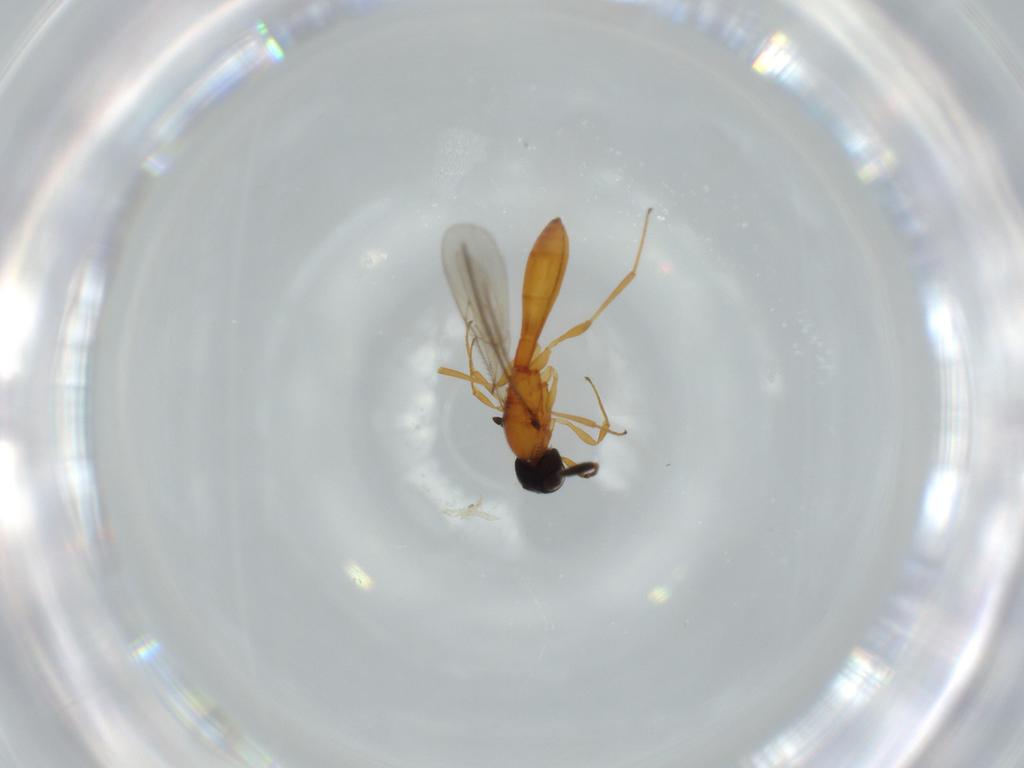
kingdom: Animalia
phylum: Arthropoda
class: Insecta
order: Hymenoptera
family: Scelionidae
